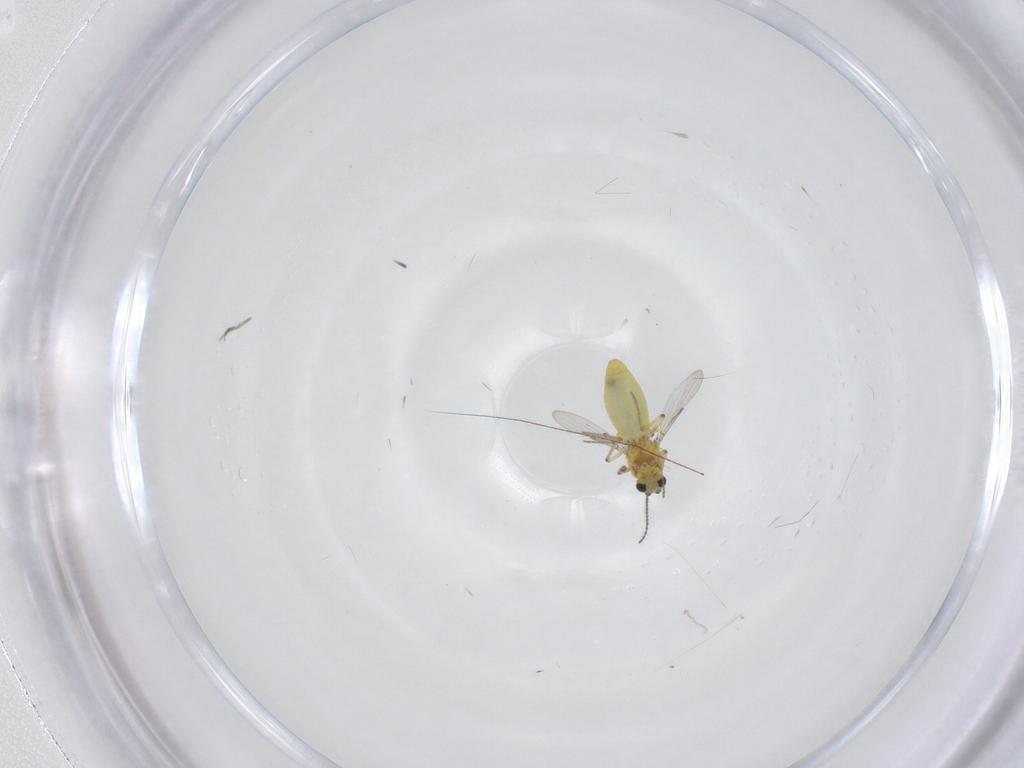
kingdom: Animalia
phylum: Arthropoda
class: Insecta
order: Diptera
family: Ceratopogonidae
